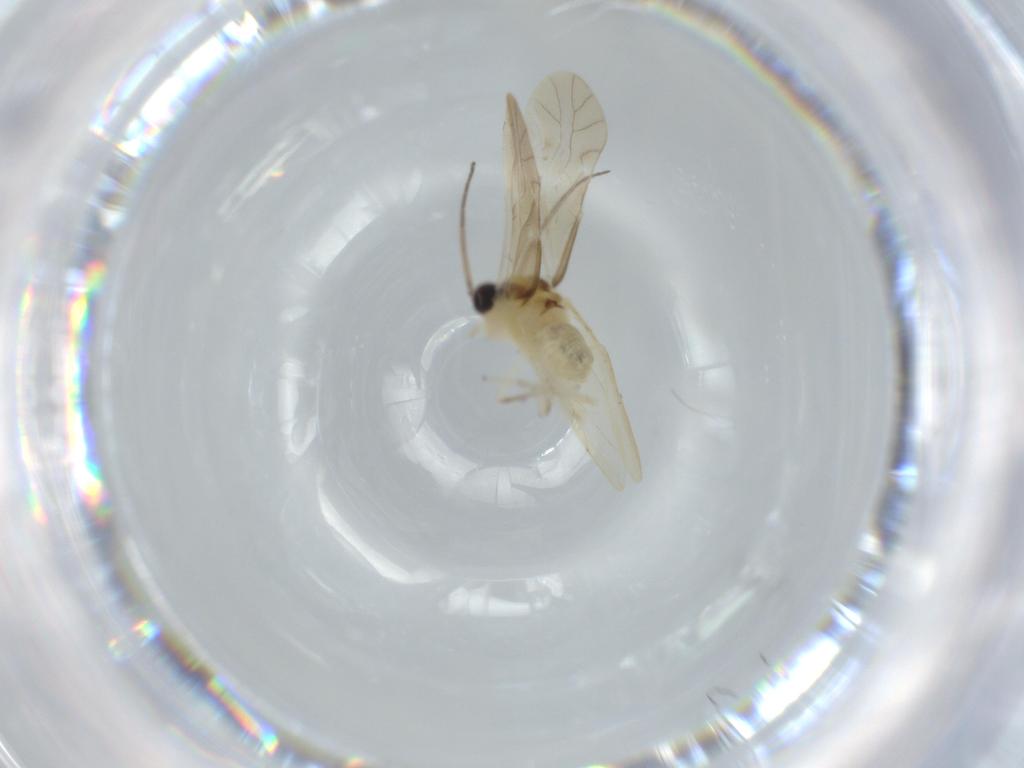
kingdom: Animalia
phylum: Arthropoda
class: Insecta
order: Psocodea
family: Caeciliusidae
